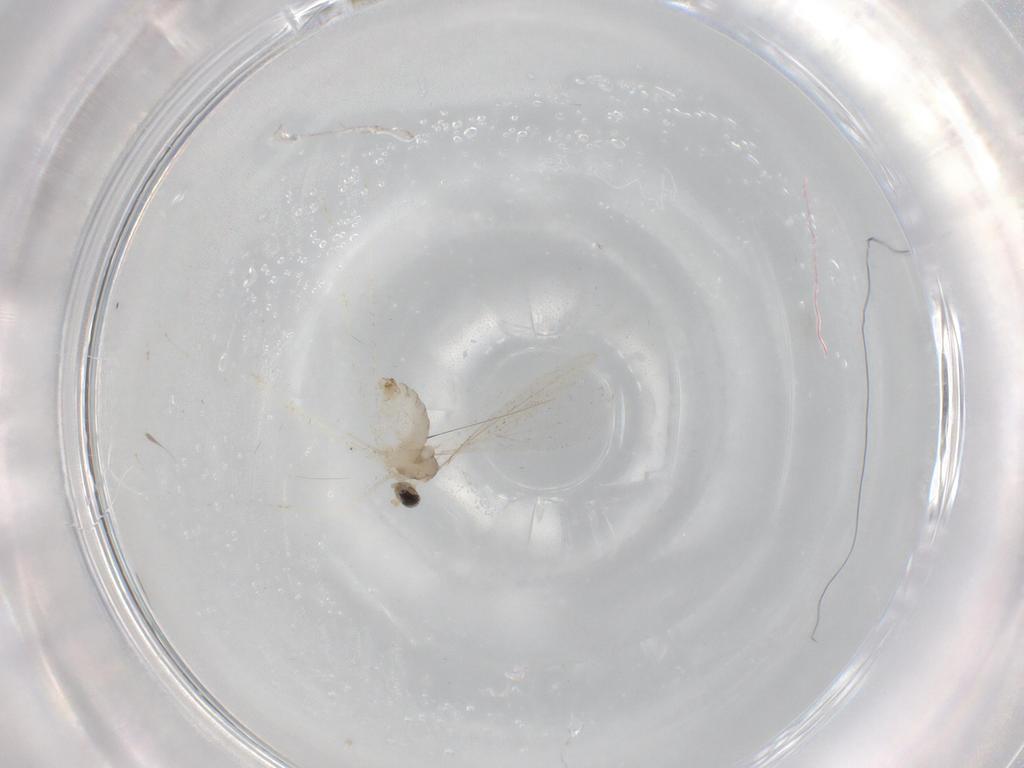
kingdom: Animalia
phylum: Arthropoda
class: Insecta
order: Diptera
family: Cecidomyiidae
